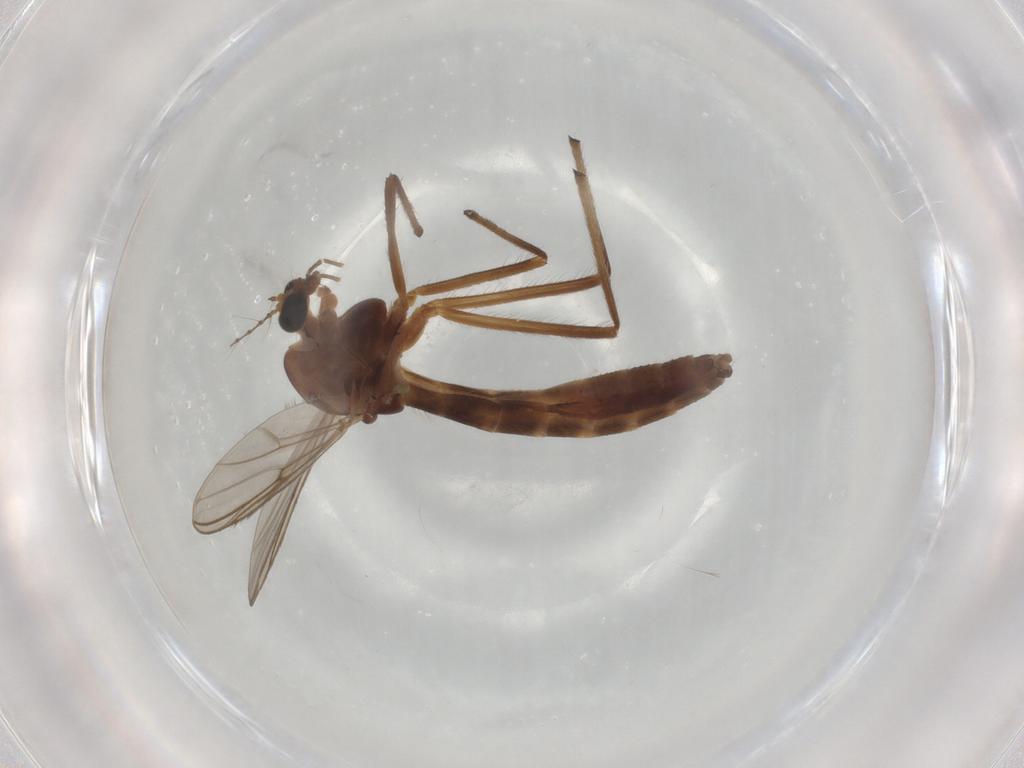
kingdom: Animalia
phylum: Arthropoda
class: Insecta
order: Diptera
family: Chironomidae
